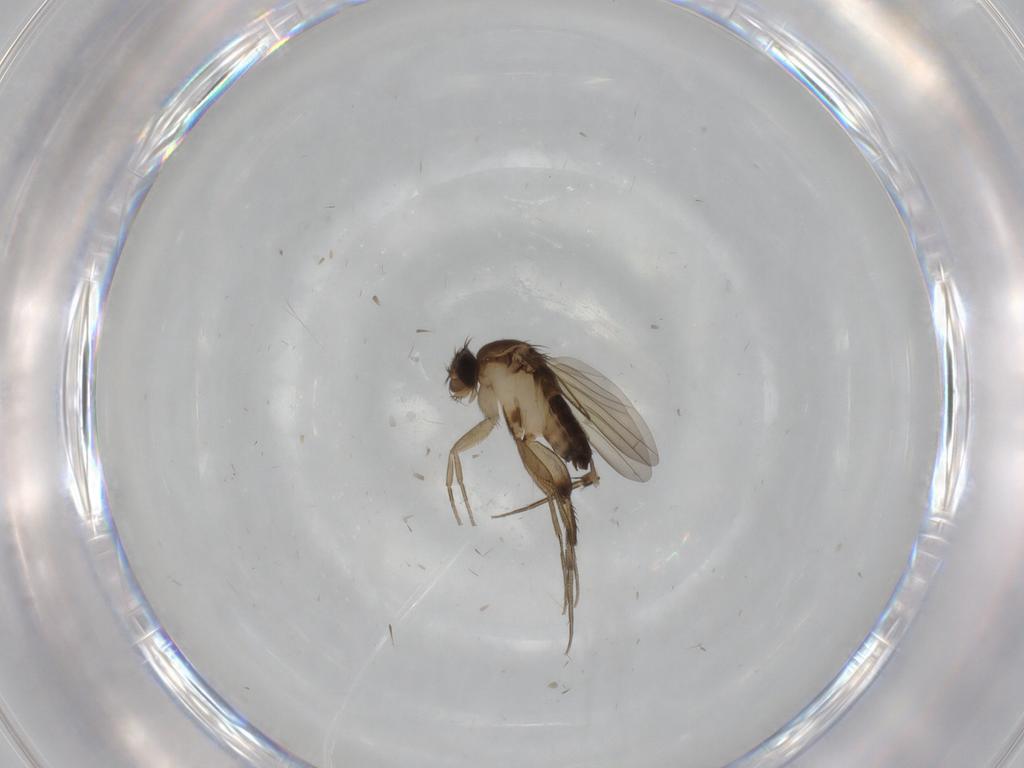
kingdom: Animalia
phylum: Arthropoda
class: Insecta
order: Diptera
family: Phoridae
